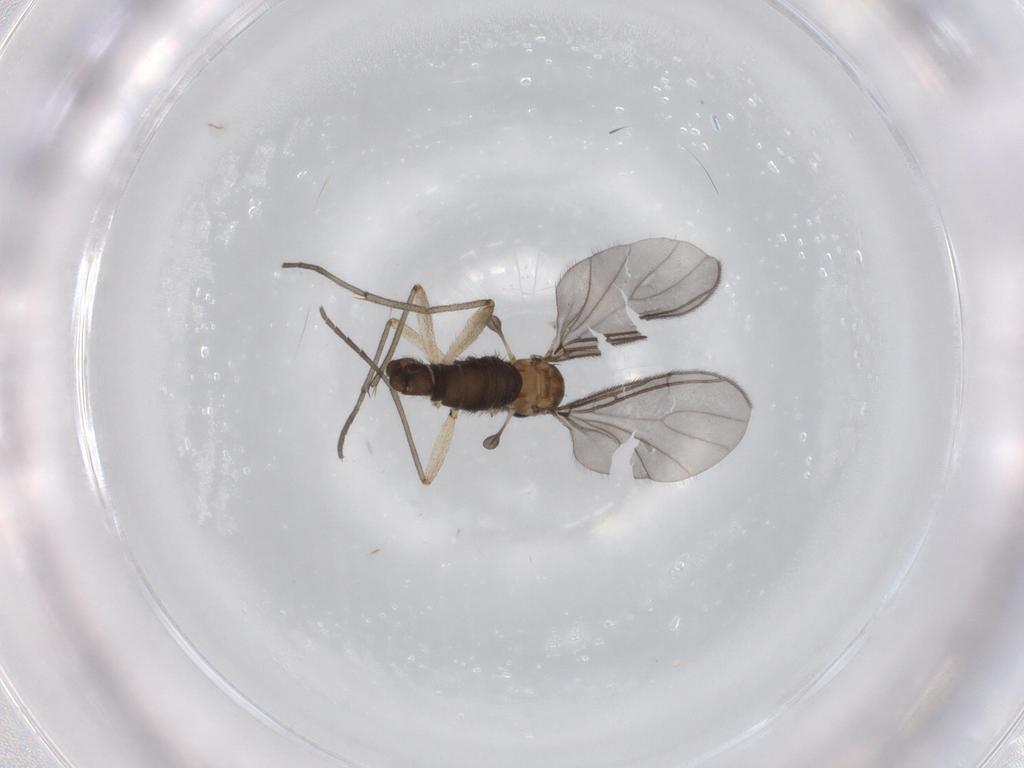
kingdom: Animalia
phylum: Arthropoda
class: Insecta
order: Diptera
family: Sciaridae
